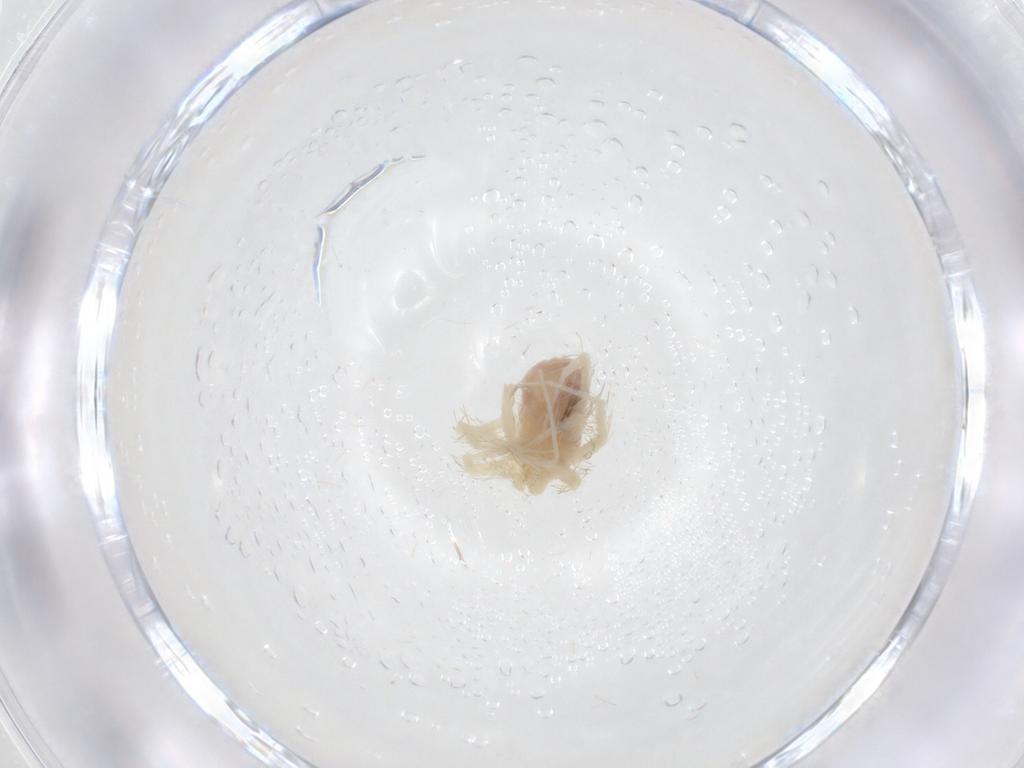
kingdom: Animalia
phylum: Arthropoda
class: Arachnida
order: Trombidiformes
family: Anystidae
